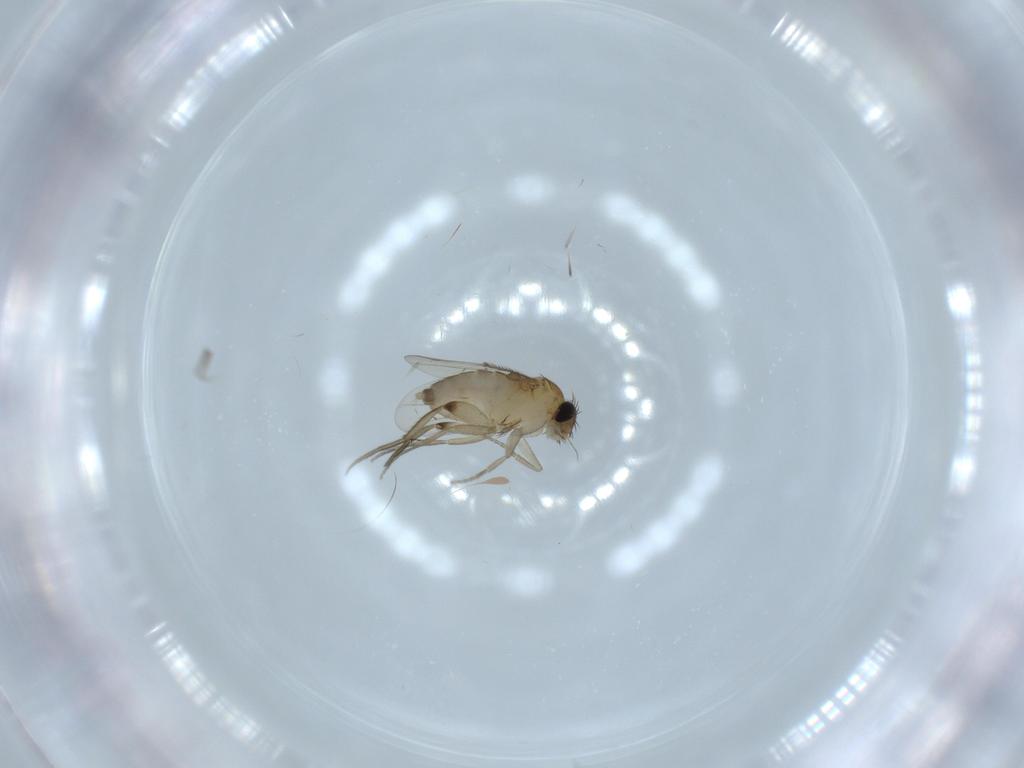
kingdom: Animalia
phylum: Arthropoda
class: Insecta
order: Diptera
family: Phoridae
